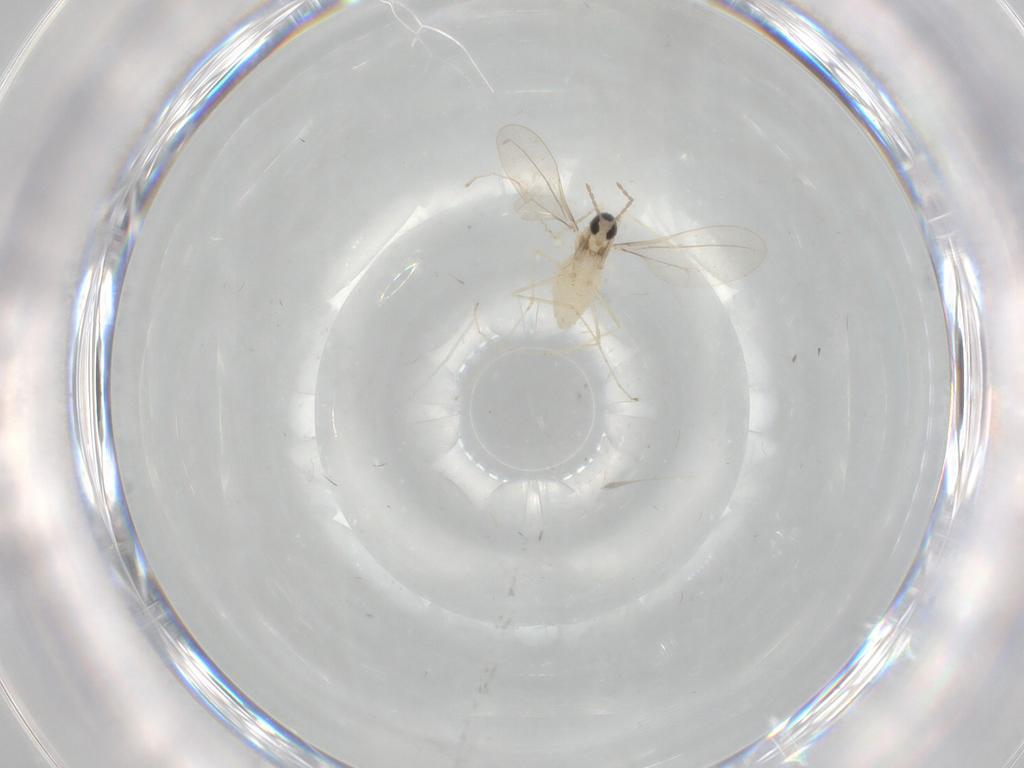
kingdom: Animalia
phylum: Arthropoda
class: Insecta
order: Diptera
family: Cecidomyiidae
